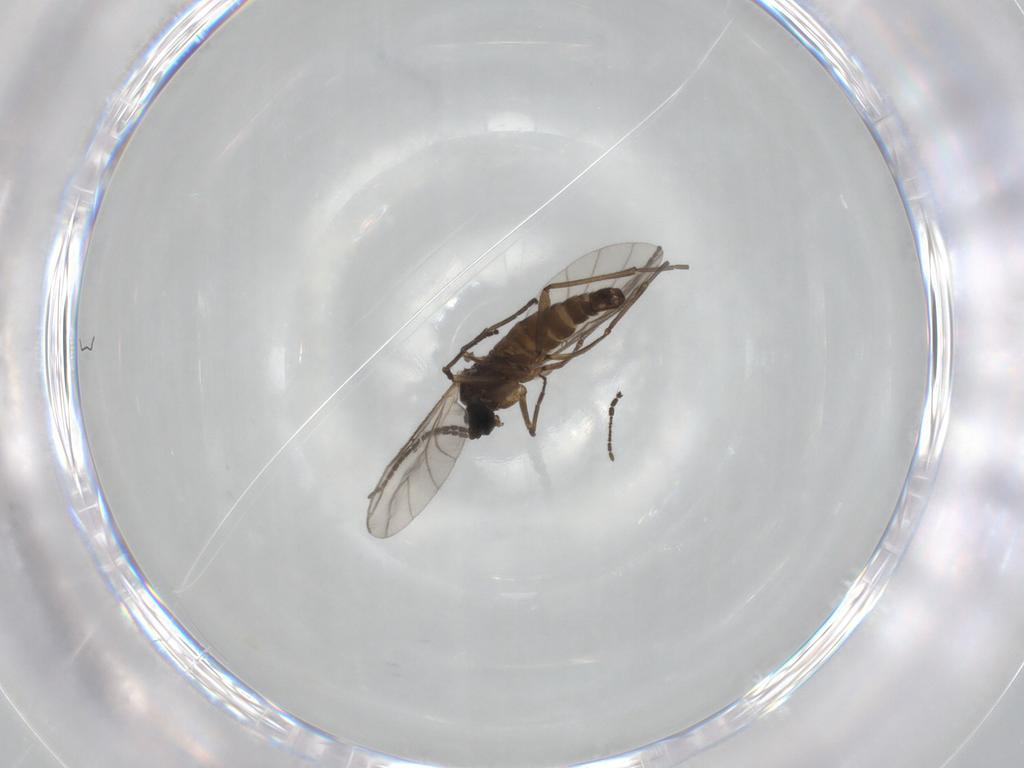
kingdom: Animalia
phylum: Arthropoda
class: Insecta
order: Diptera
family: Sciaridae
